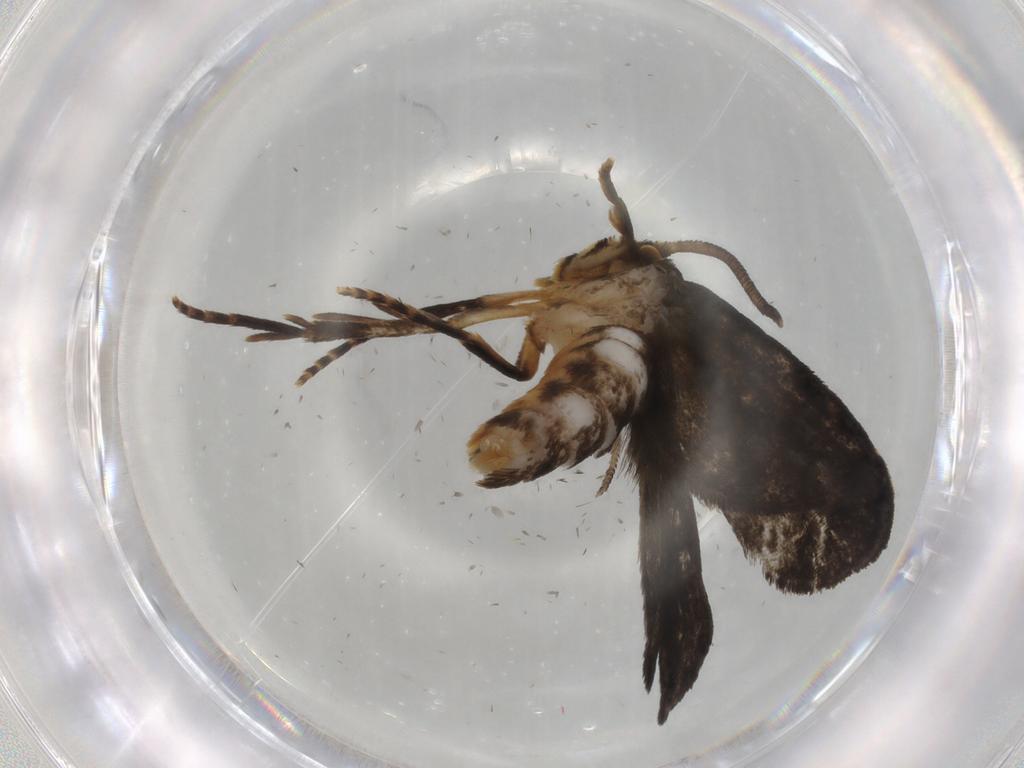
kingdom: Animalia
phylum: Arthropoda
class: Insecta
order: Lepidoptera
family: Dryadaulidae
